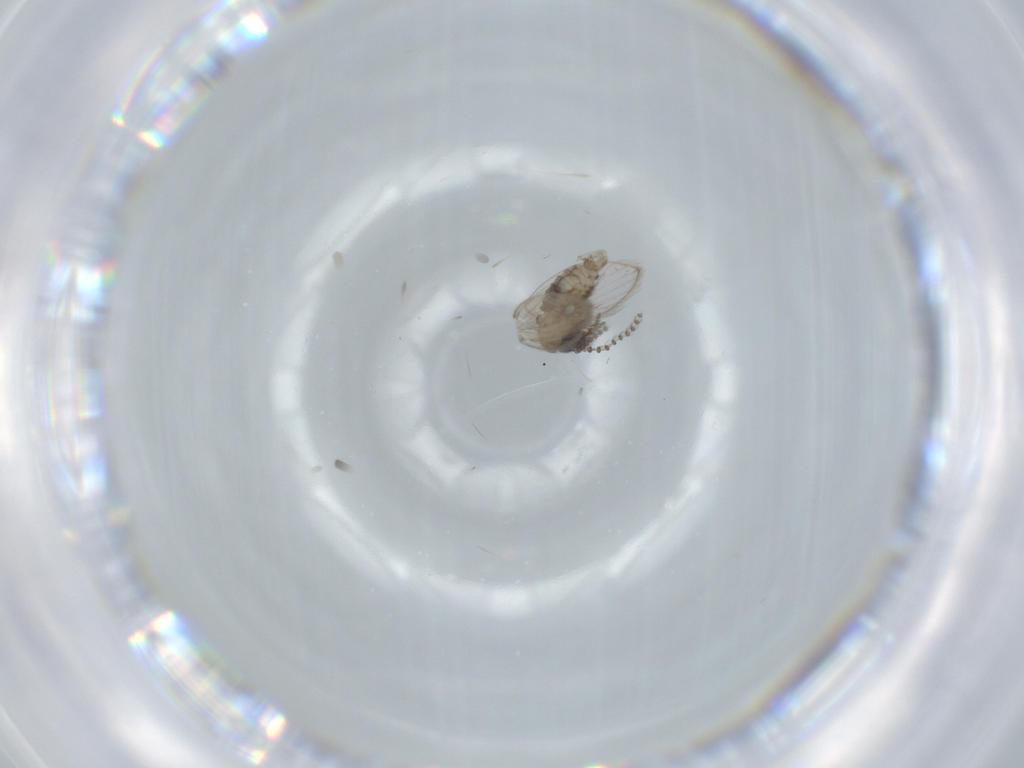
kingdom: Animalia
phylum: Arthropoda
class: Insecta
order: Diptera
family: Psychodidae
